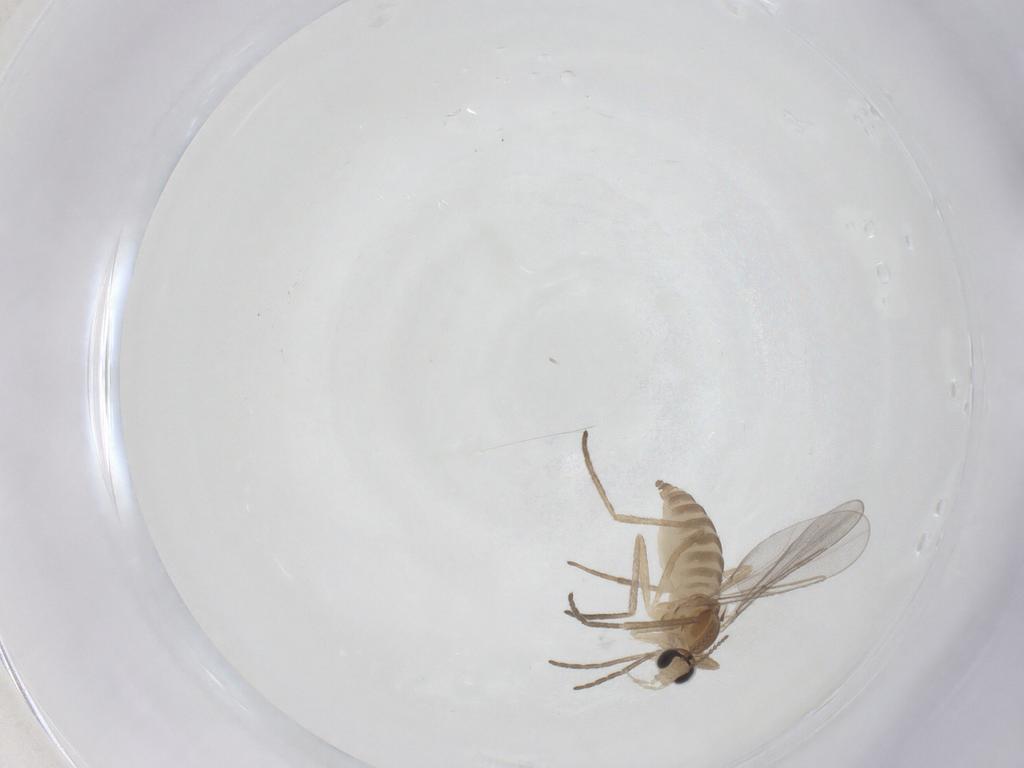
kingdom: Animalia
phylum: Arthropoda
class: Insecta
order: Diptera
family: Cecidomyiidae
